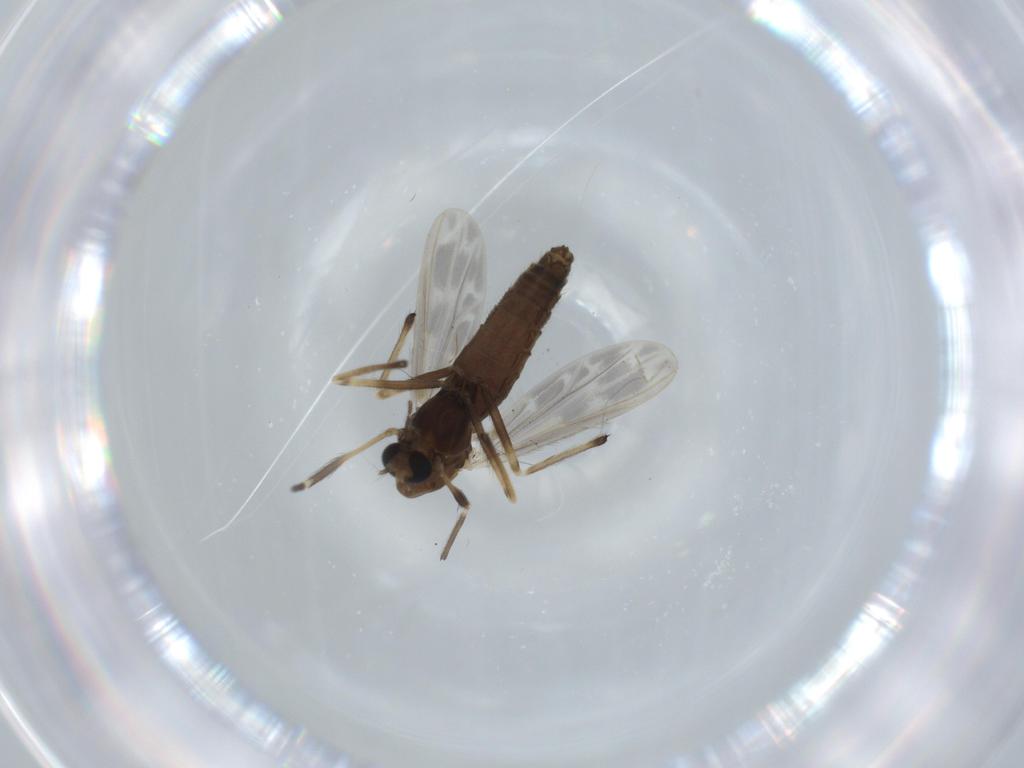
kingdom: Animalia
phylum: Arthropoda
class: Insecta
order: Diptera
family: Chironomidae
